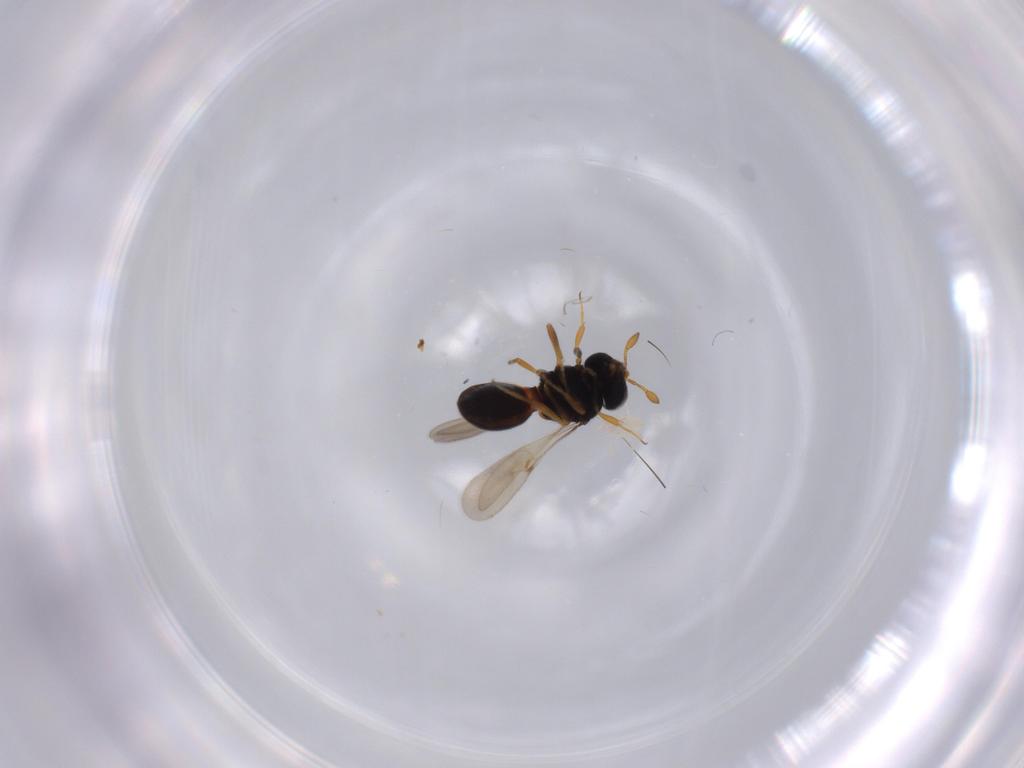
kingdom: Animalia
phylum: Arthropoda
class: Insecta
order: Hymenoptera
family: Scelionidae
